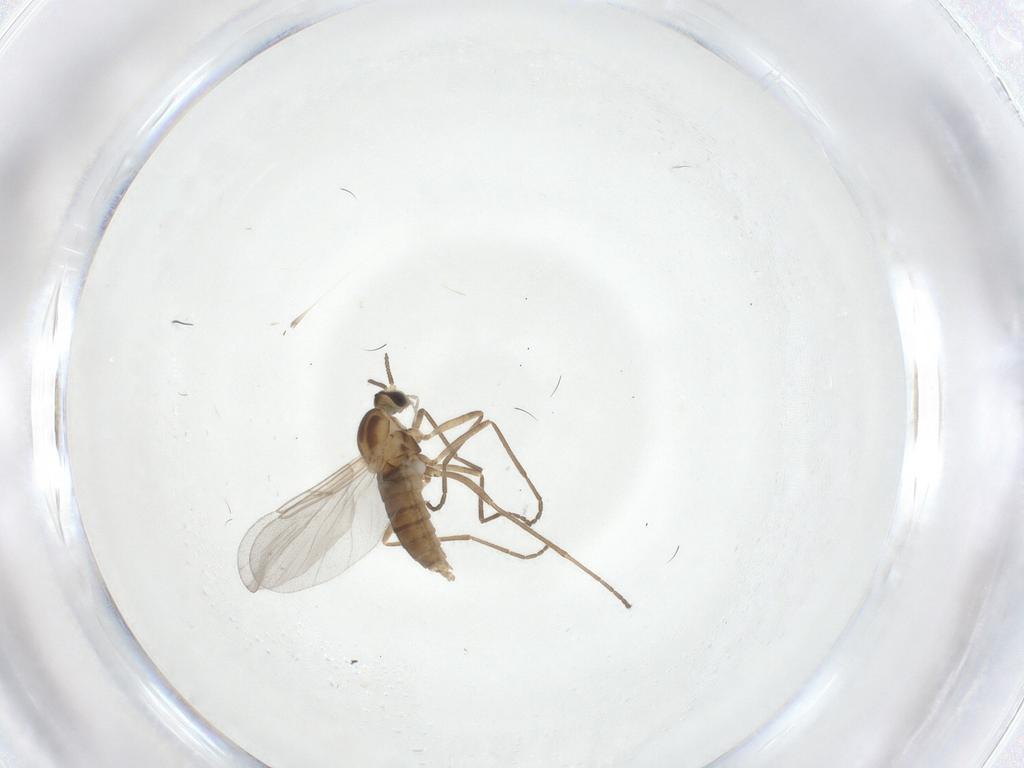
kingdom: Animalia
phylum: Arthropoda
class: Insecta
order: Diptera
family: Cecidomyiidae
